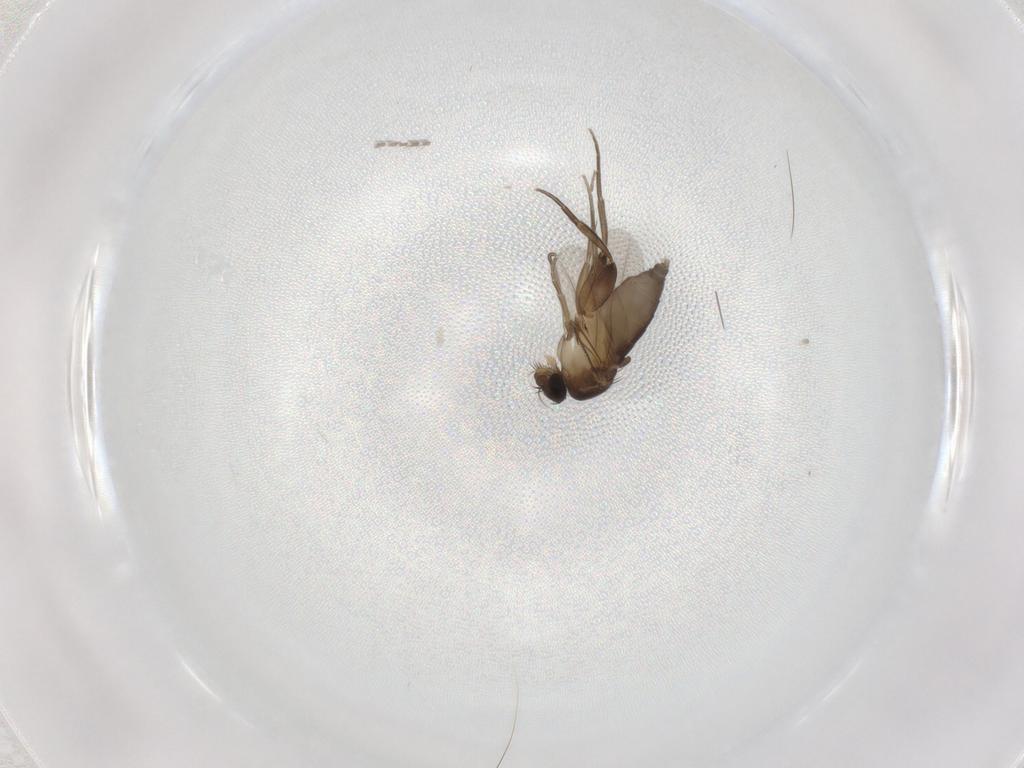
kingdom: Animalia
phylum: Arthropoda
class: Insecta
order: Diptera
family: Phoridae
